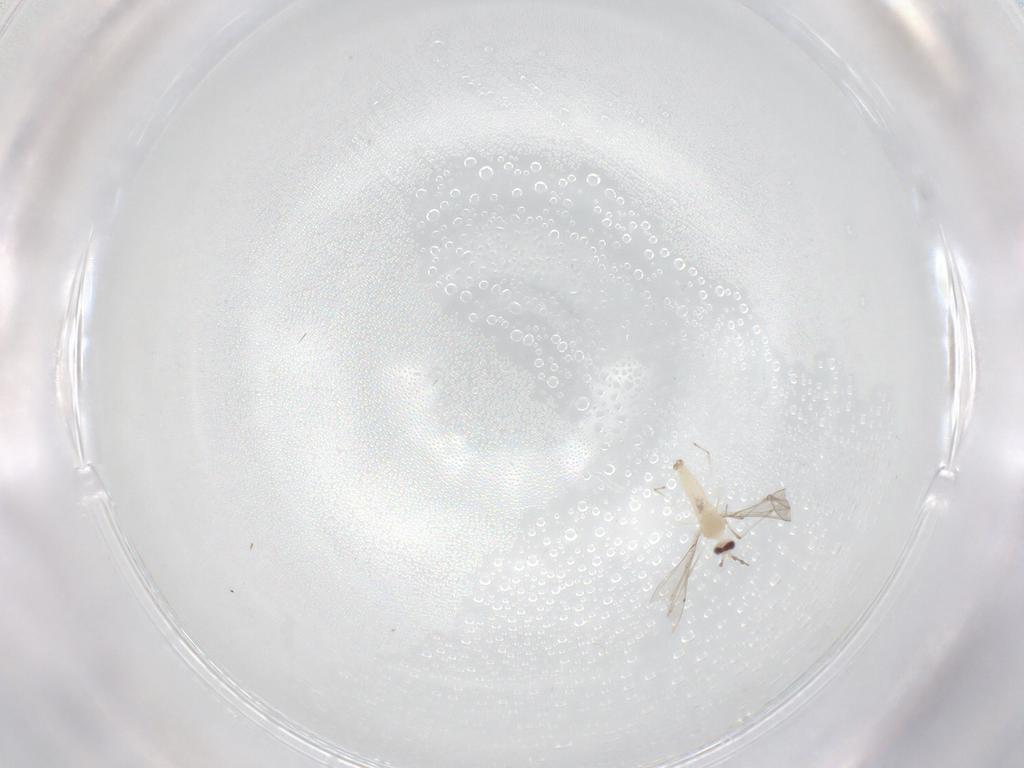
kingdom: Animalia
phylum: Arthropoda
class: Insecta
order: Diptera
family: Cecidomyiidae
